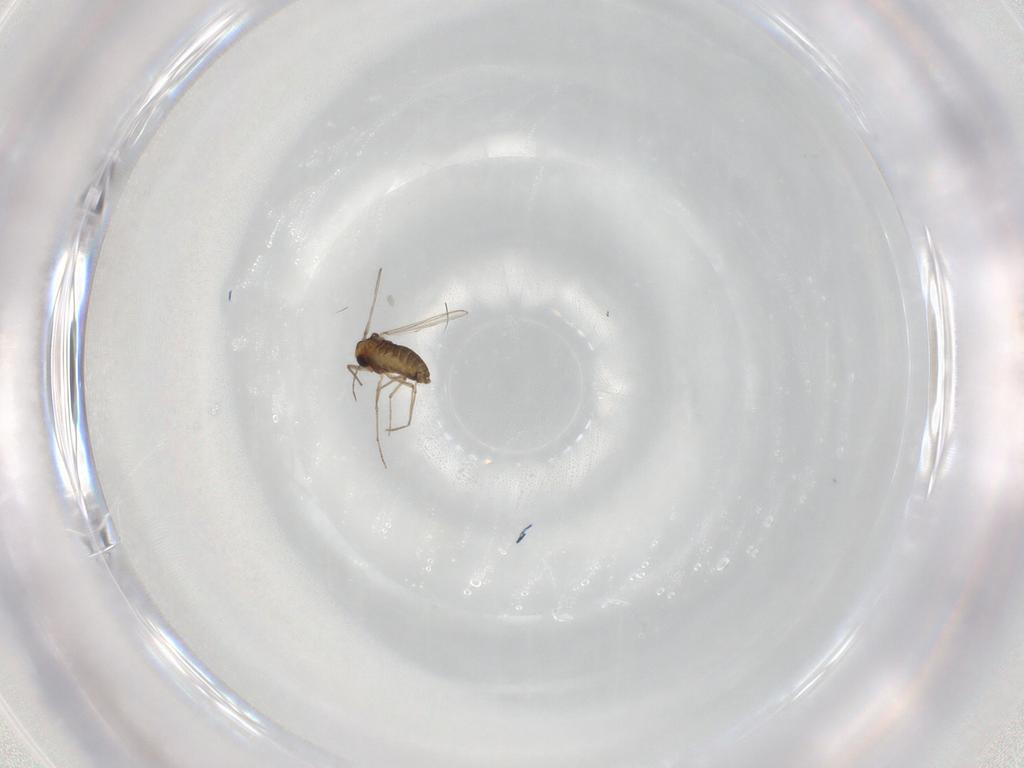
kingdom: Animalia
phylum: Arthropoda
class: Insecta
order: Diptera
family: Chironomidae
